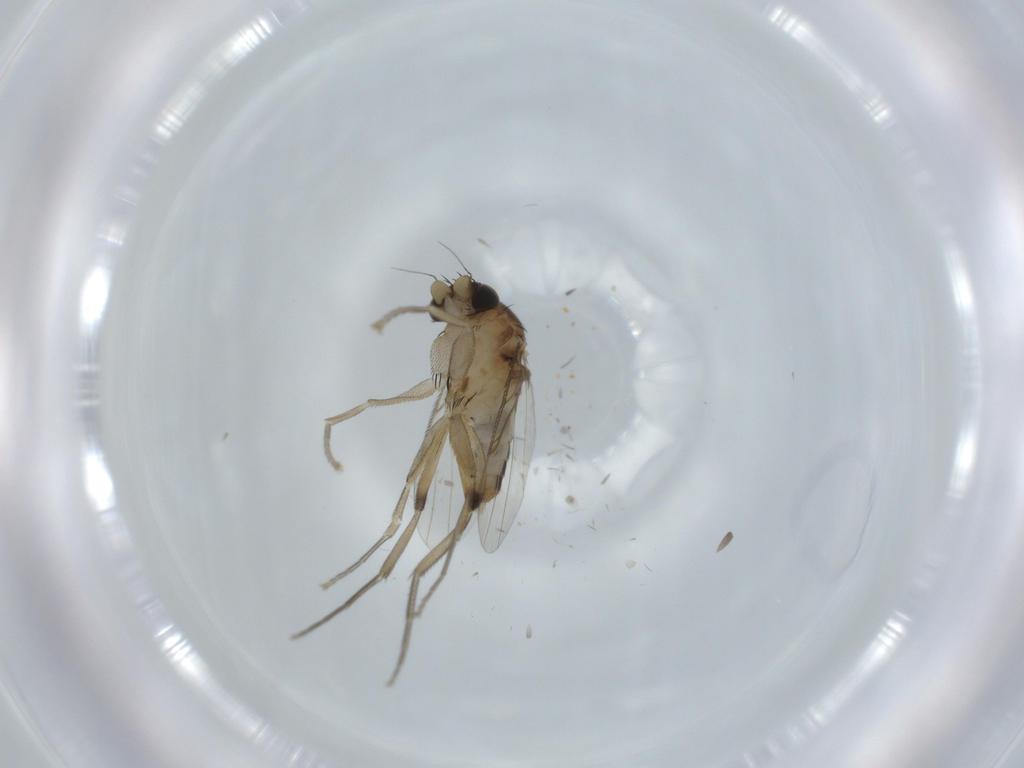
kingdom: Animalia
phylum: Arthropoda
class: Insecta
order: Diptera
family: Phoridae
